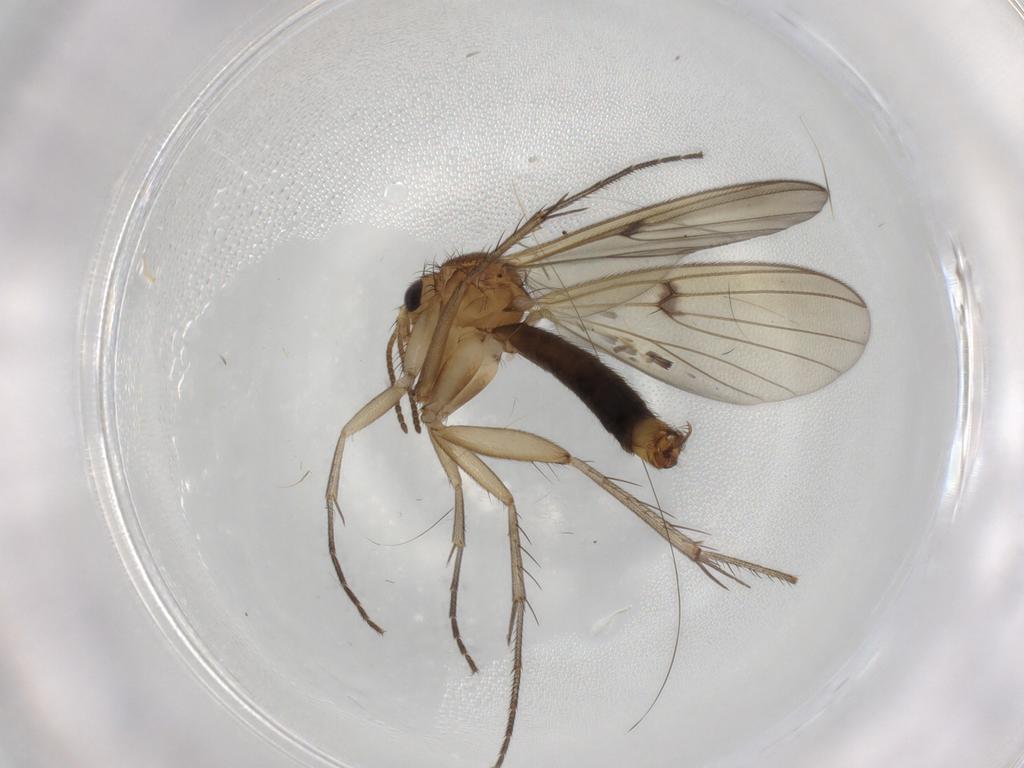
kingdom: Animalia
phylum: Arthropoda
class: Insecta
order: Diptera
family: Chironomidae
